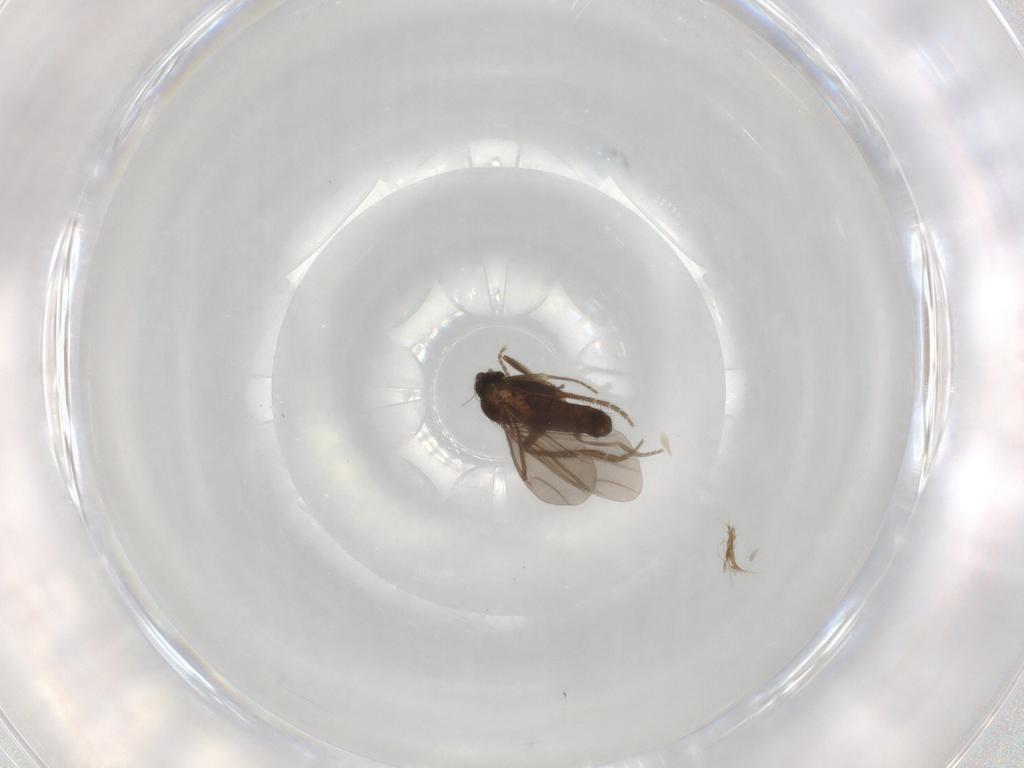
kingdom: Animalia
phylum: Arthropoda
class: Insecta
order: Diptera
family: Phoridae
